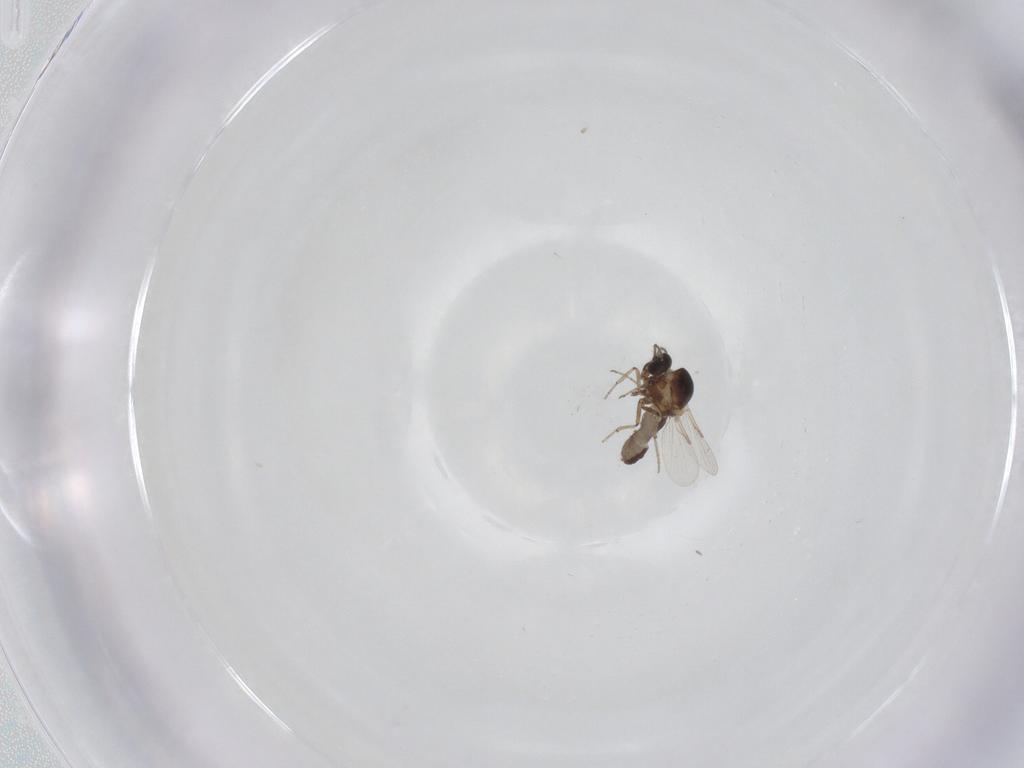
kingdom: Animalia
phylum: Arthropoda
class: Insecta
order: Diptera
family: Ceratopogonidae
